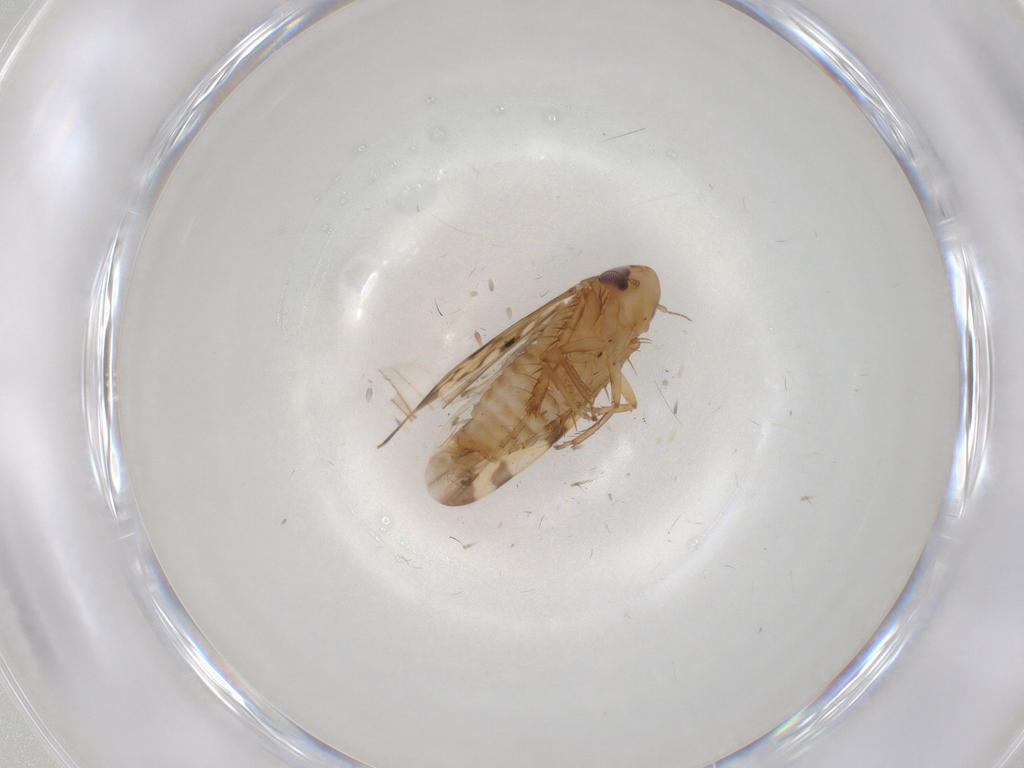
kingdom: Animalia
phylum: Arthropoda
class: Insecta
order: Hemiptera
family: Cicadellidae
